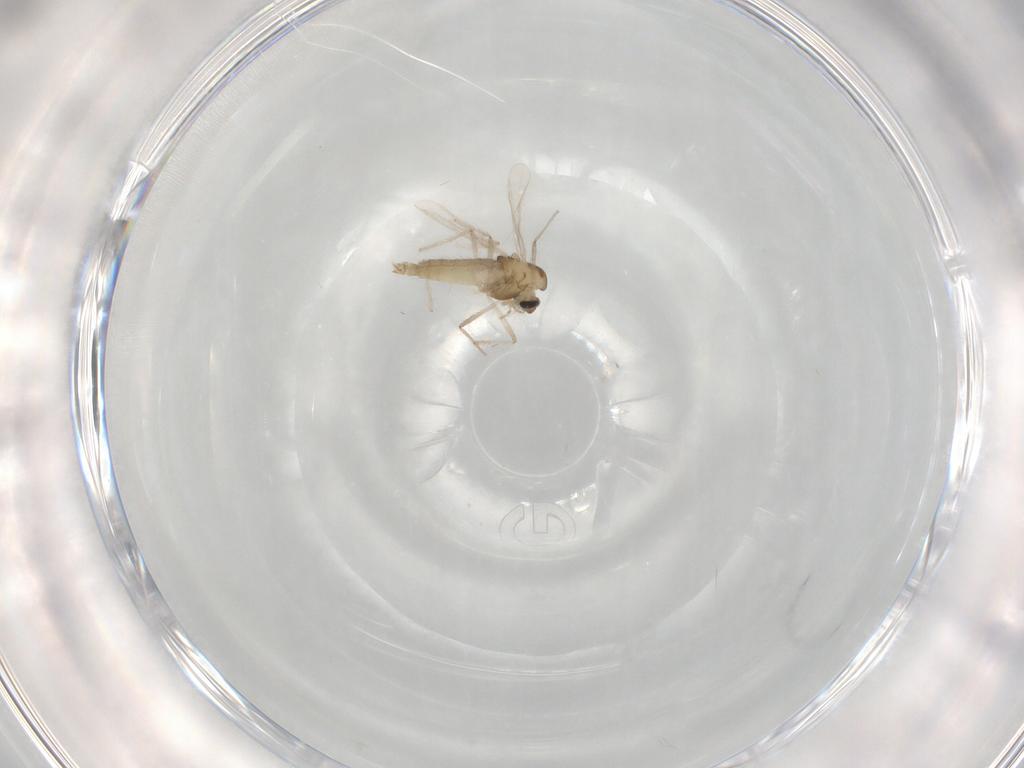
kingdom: Animalia
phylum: Arthropoda
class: Insecta
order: Diptera
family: Chironomidae
